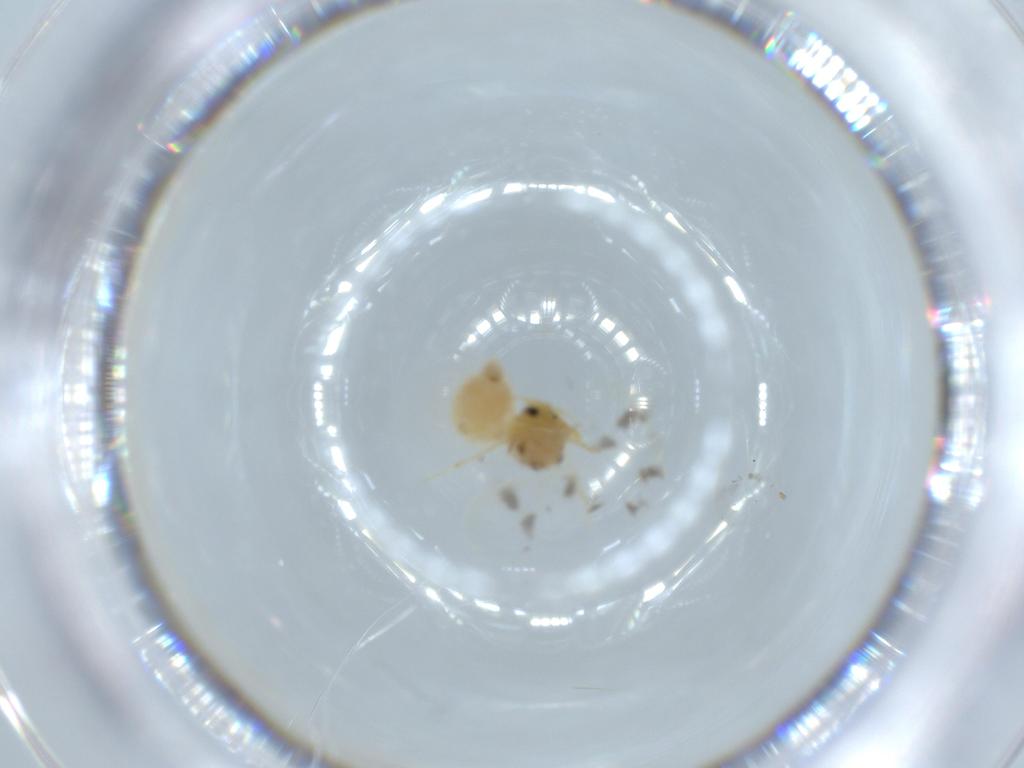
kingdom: Animalia
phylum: Arthropoda
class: Insecta
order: Hemiptera
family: Aleyrodidae
